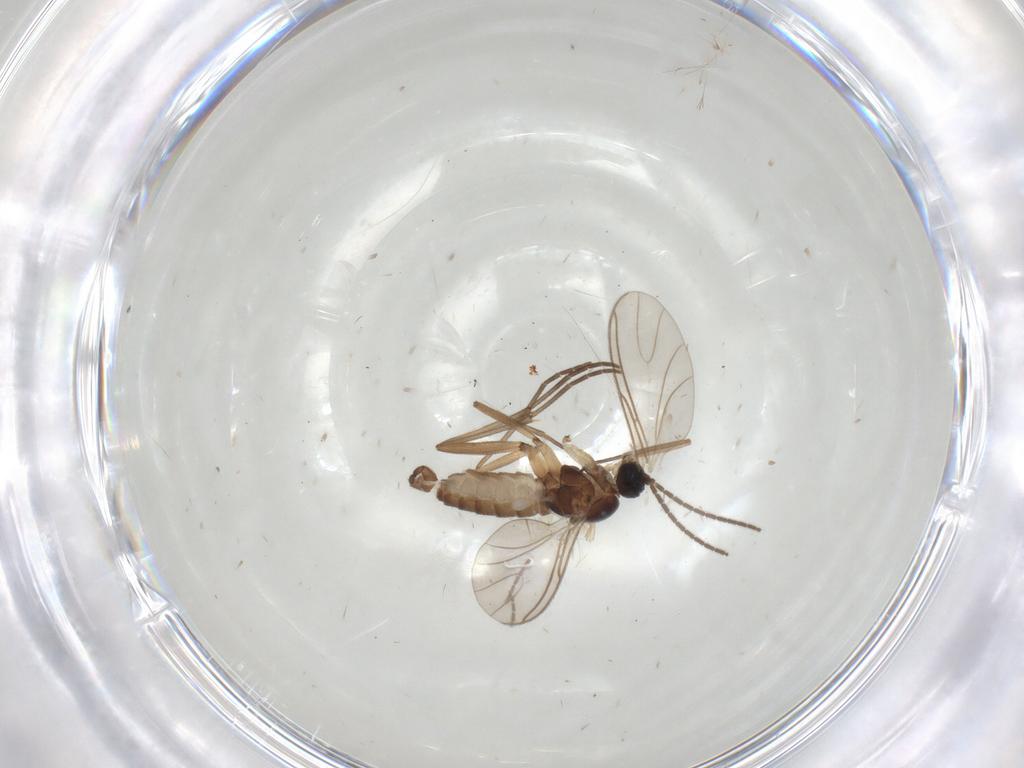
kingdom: Animalia
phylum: Arthropoda
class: Insecta
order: Diptera
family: Sciaridae
